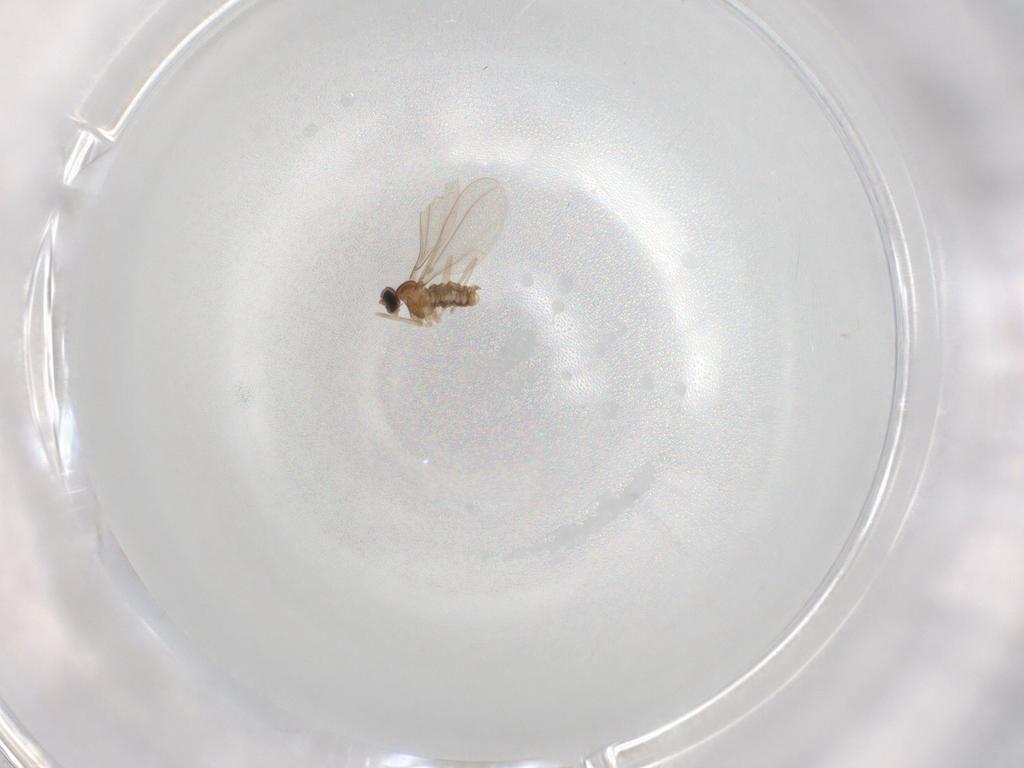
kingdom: Animalia
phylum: Arthropoda
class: Insecta
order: Diptera
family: Cecidomyiidae
